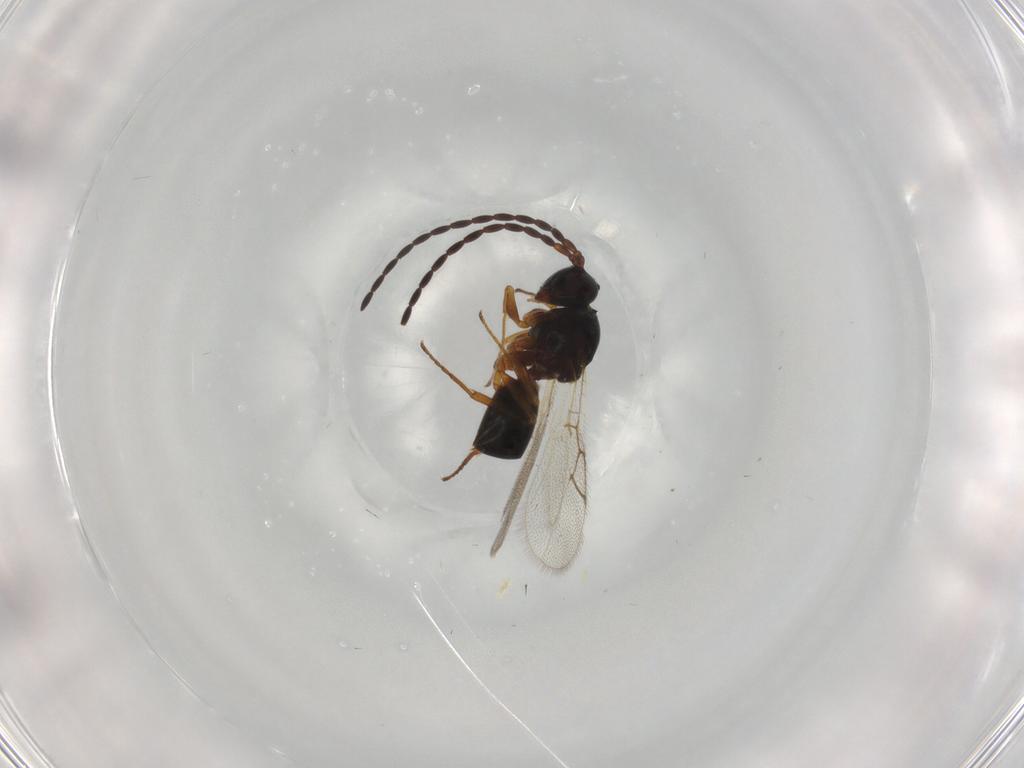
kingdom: Animalia
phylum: Arthropoda
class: Insecta
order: Hymenoptera
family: Figitidae
